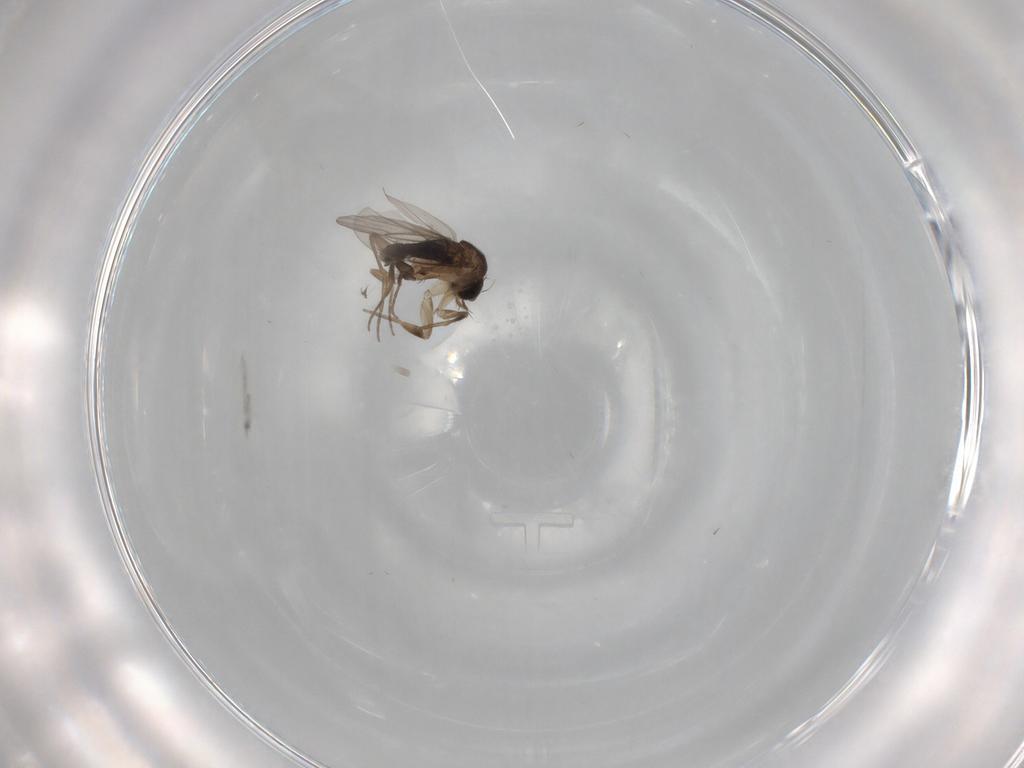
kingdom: Animalia
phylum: Arthropoda
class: Insecta
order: Diptera
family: Phoridae
